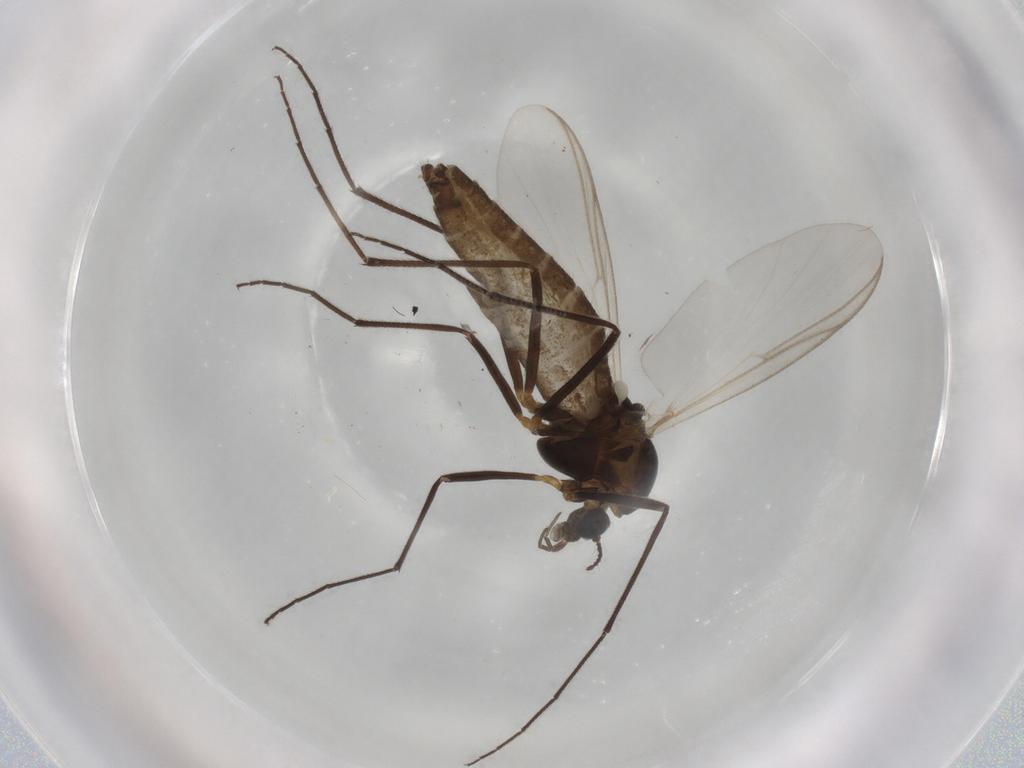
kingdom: Animalia
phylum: Arthropoda
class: Insecta
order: Diptera
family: Chironomidae
